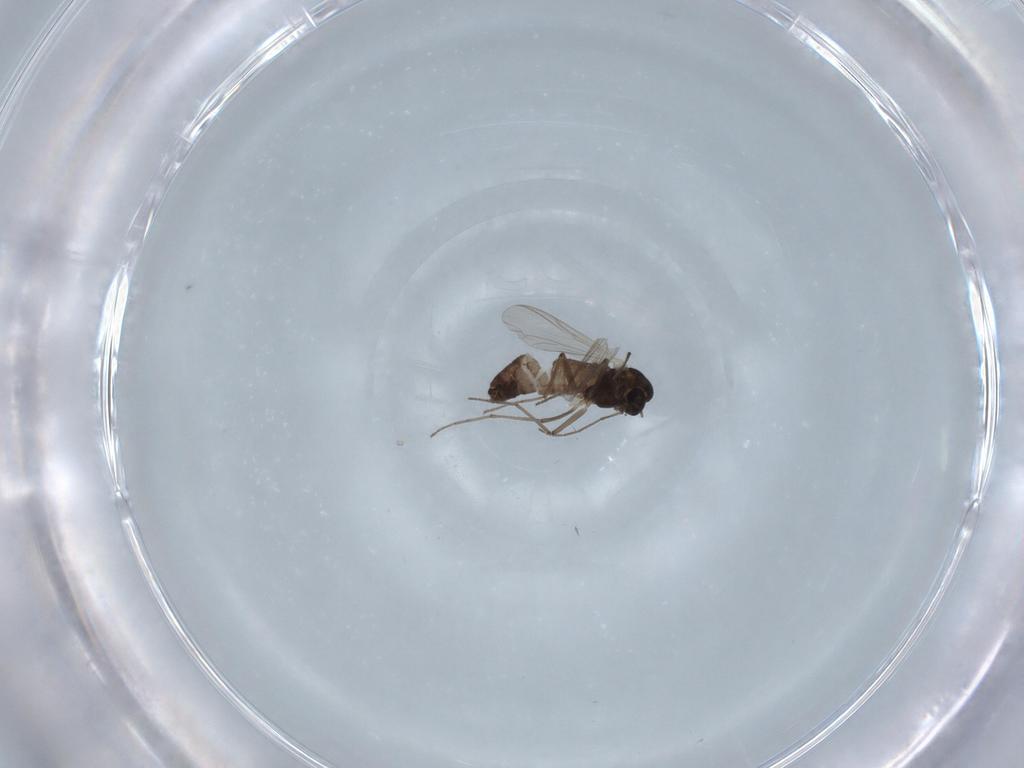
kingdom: Animalia
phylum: Arthropoda
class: Insecta
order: Diptera
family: Chironomidae
